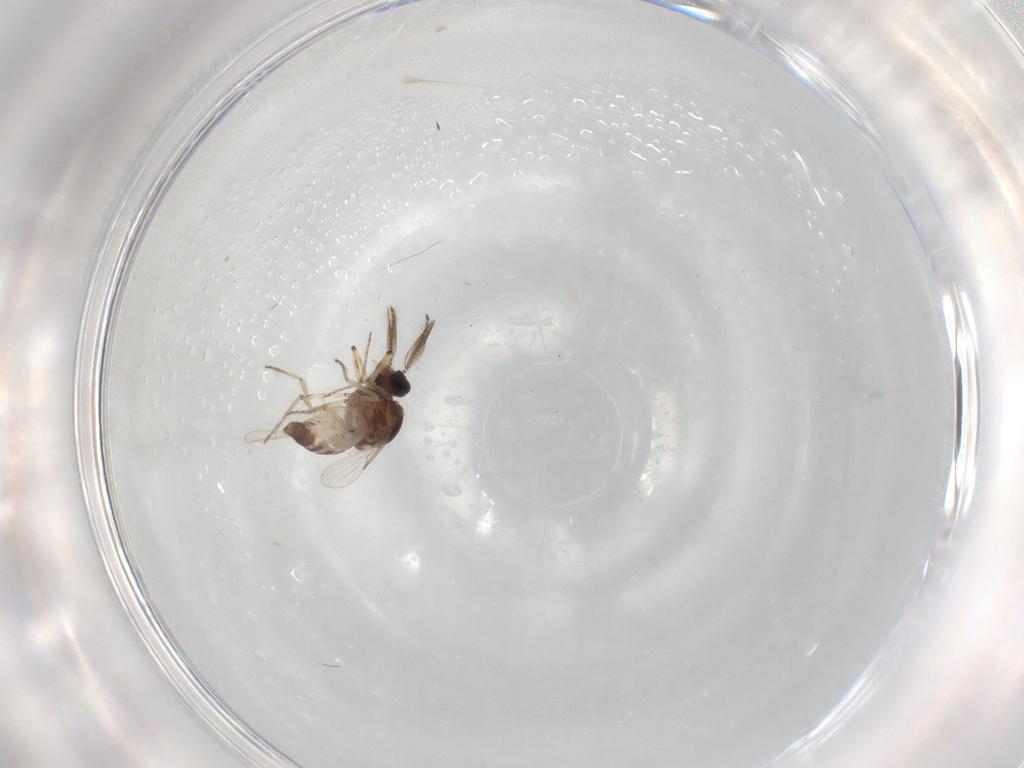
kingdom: Animalia
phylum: Arthropoda
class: Insecta
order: Diptera
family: Ceratopogonidae
